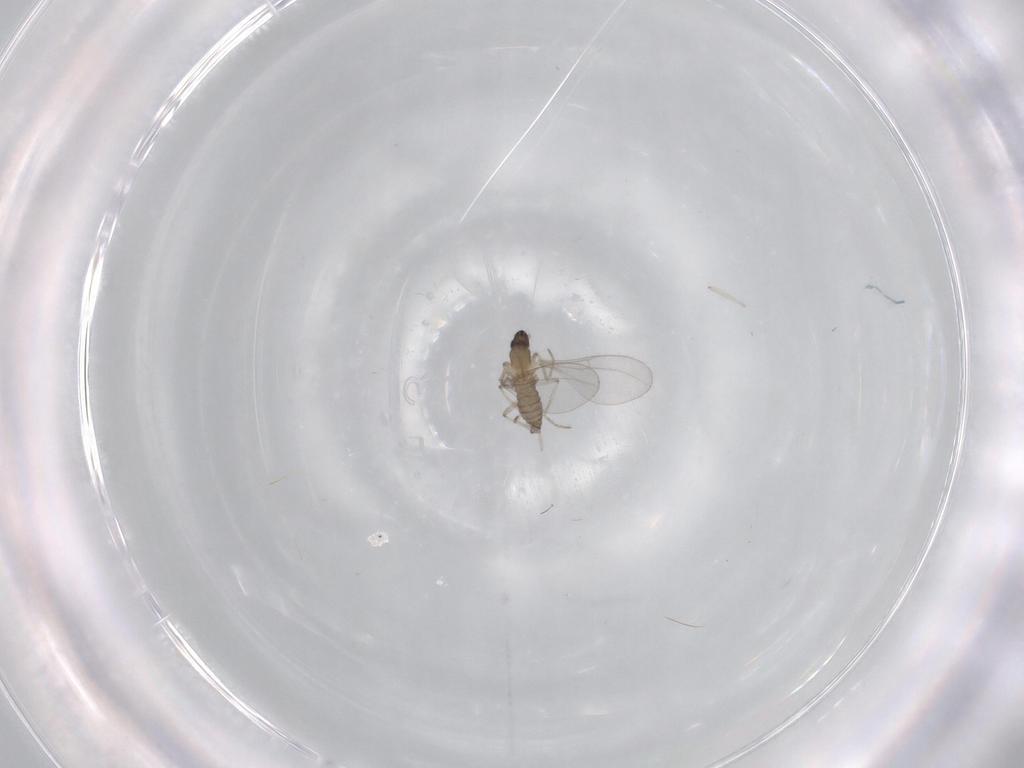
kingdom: Animalia
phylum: Arthropoda
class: Insecta
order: Diptera
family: Cecidomyiidae
